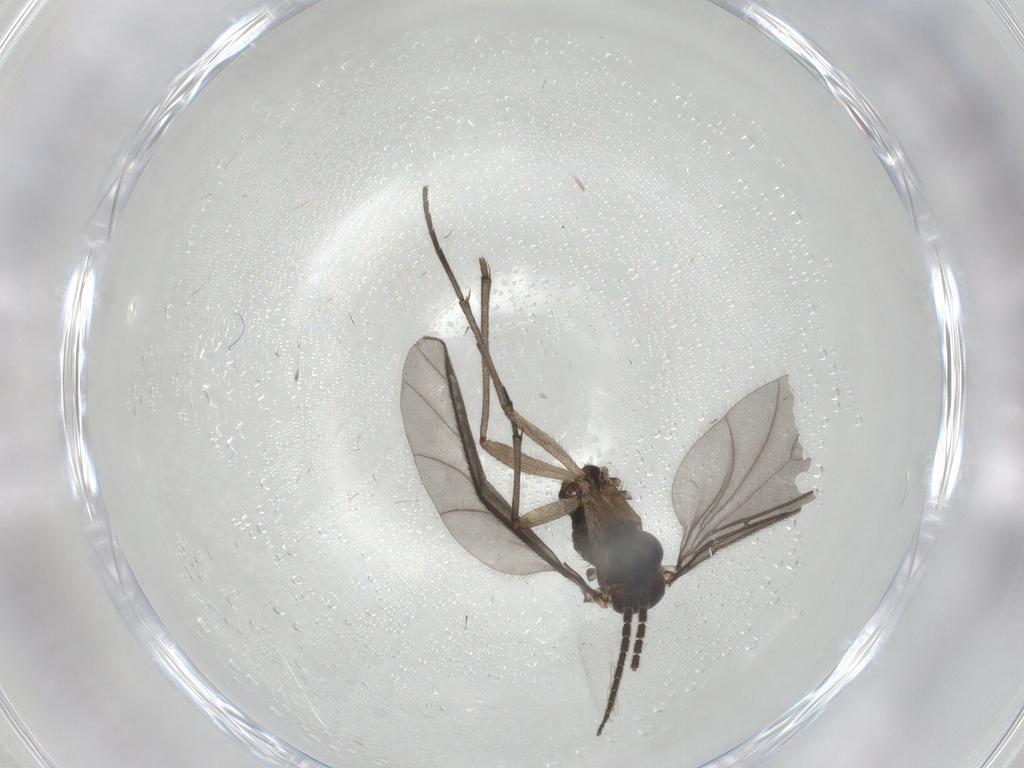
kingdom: Animalia
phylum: Arthropoda
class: Insecta
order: Diptera
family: Sciaridae
